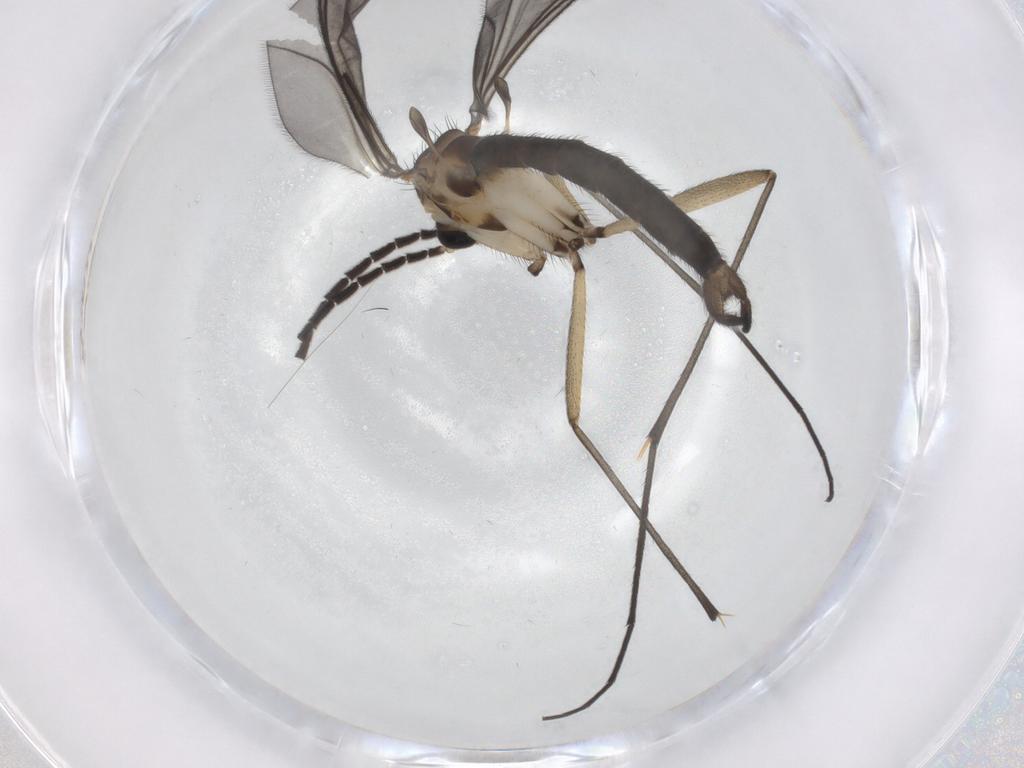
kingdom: Animalia
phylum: Arthropoda
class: Insecta
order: Diptera
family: Sciaridae
